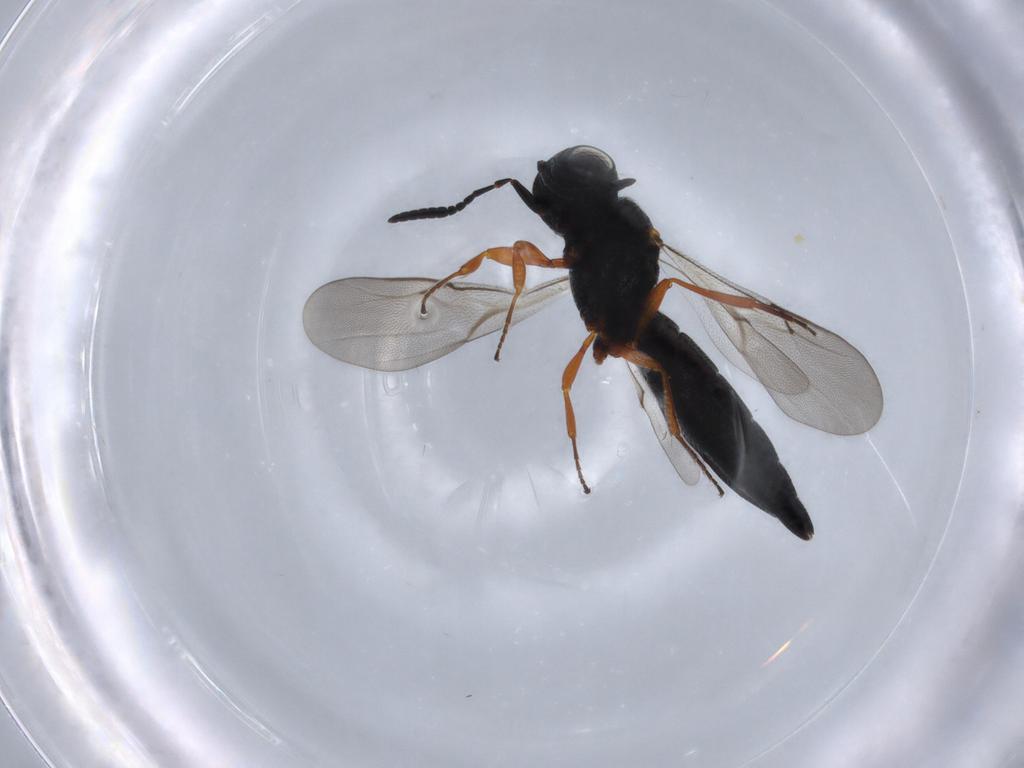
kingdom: Animalia
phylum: Arthropoda
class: Insecta
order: Hymenoptera
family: Scelionidae
